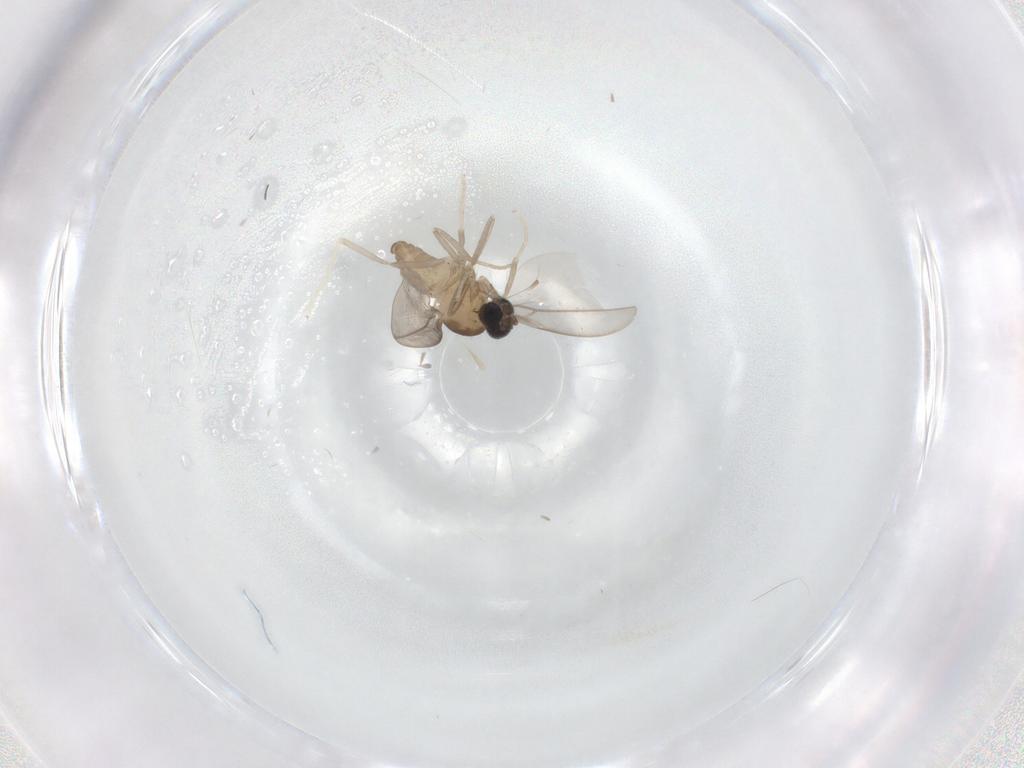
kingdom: Animalia
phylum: Arthropoda
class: Insecta
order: Diptera
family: Cecidomyiidae
